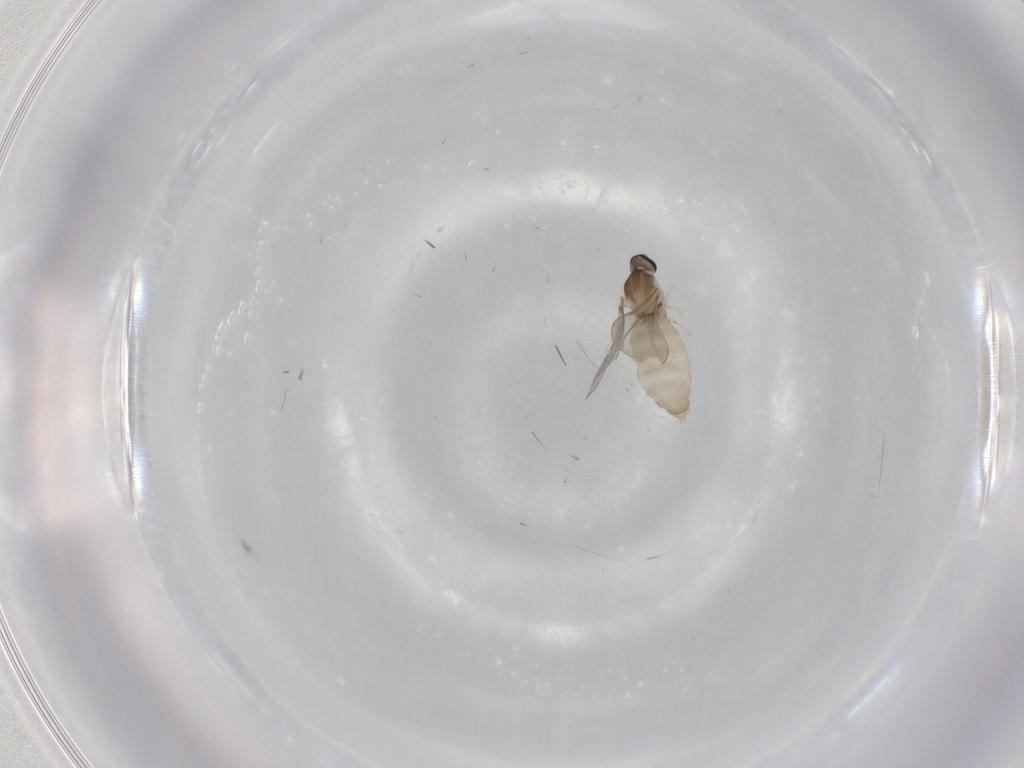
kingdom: Animalia
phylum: Arthropoda
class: Insecta
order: Diptera
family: Cecidomyiidae
